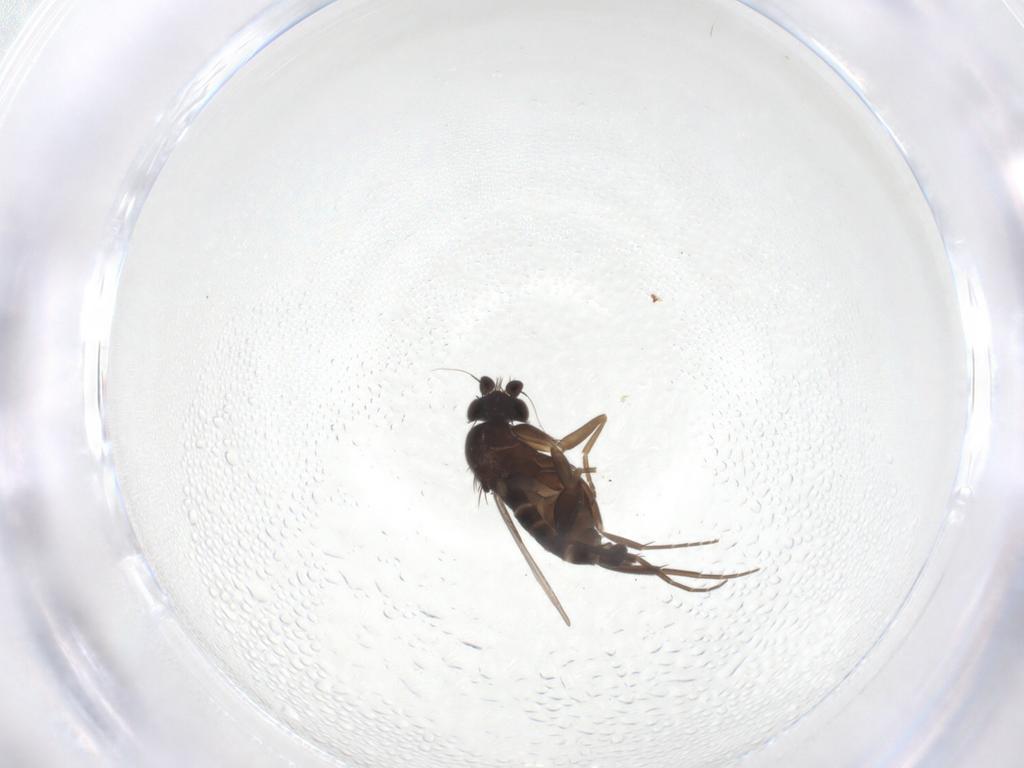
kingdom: Animalia
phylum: Arthropoda
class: Insecta
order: Diptera
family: Phoridae
